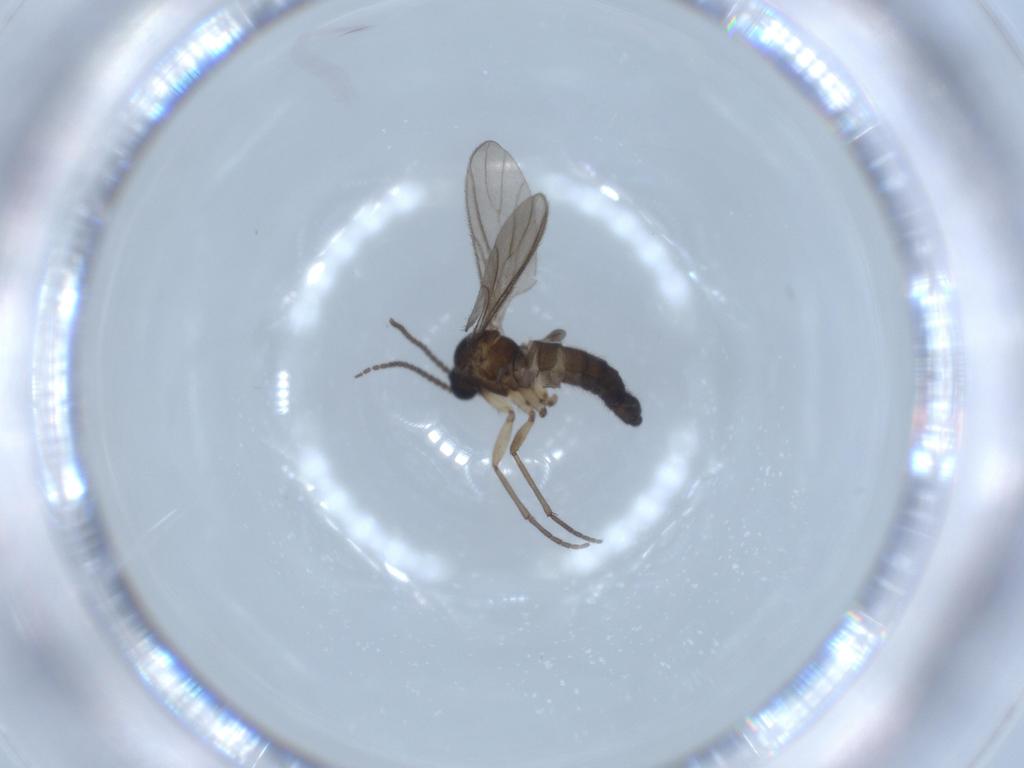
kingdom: Animalia
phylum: Arthropoda
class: Insecta
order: Diptera
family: Sciaridae
